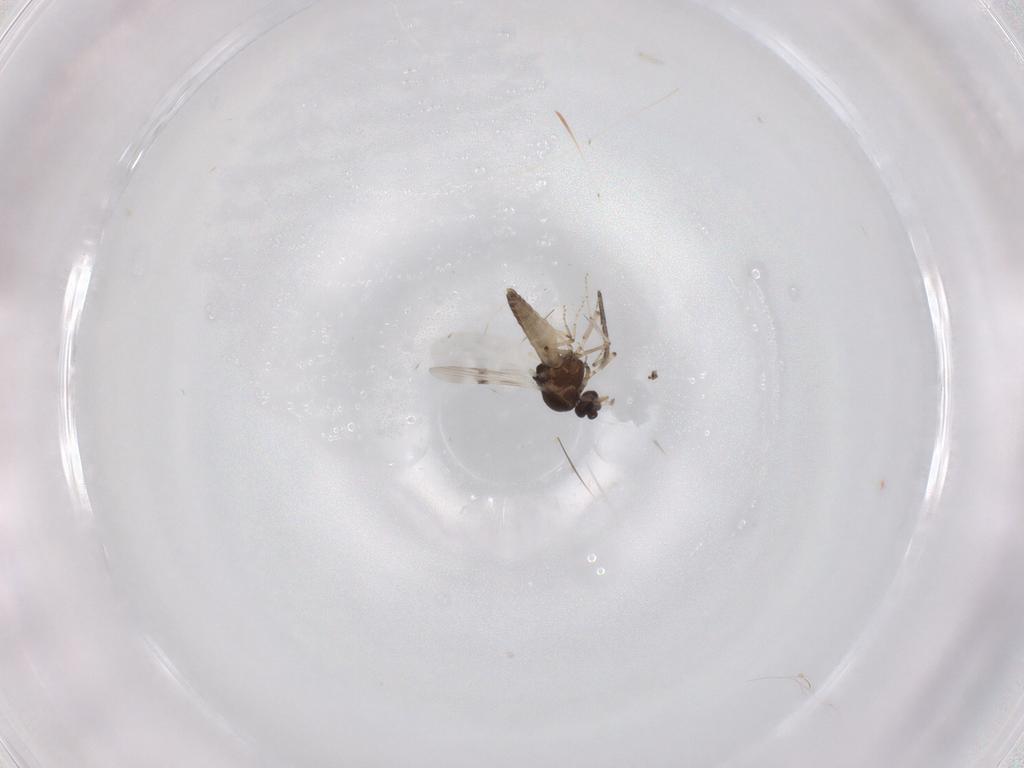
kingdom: Animalia
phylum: Arthropoda
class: Insecta
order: Diptera
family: Sciaridae
